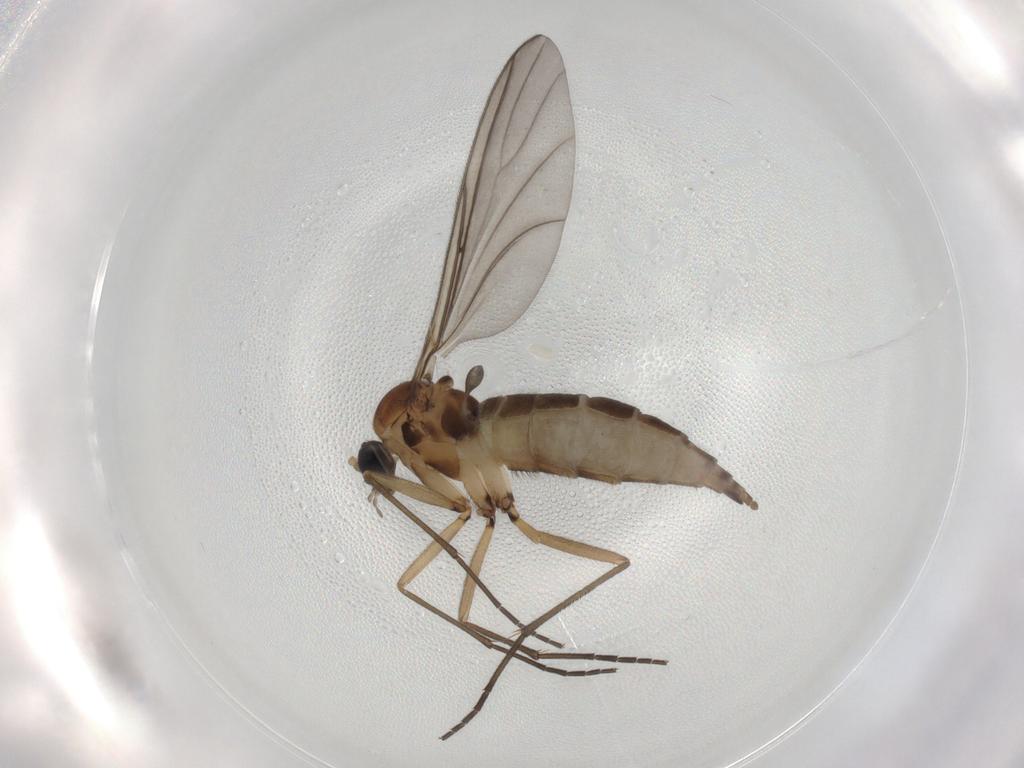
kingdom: Animalia
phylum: Arthropoda
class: Insecta
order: Diptera
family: Sciaridae
